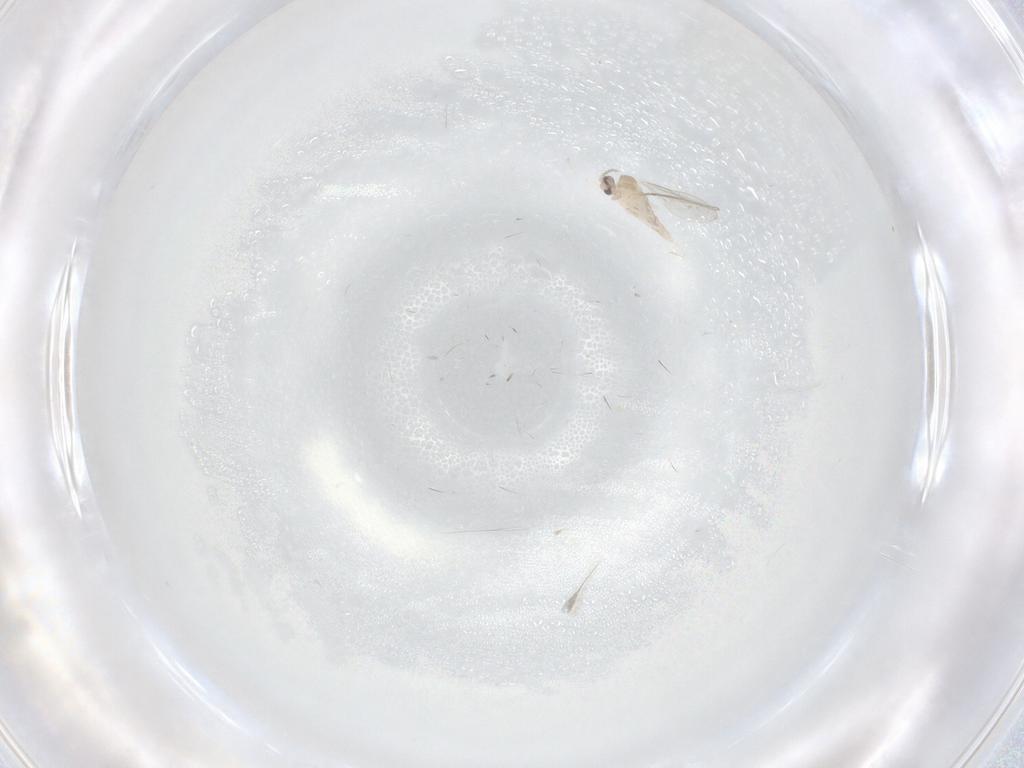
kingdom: Animalia
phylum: Arthropoda
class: Insecta
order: Diptera
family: Cecidomyiidae
